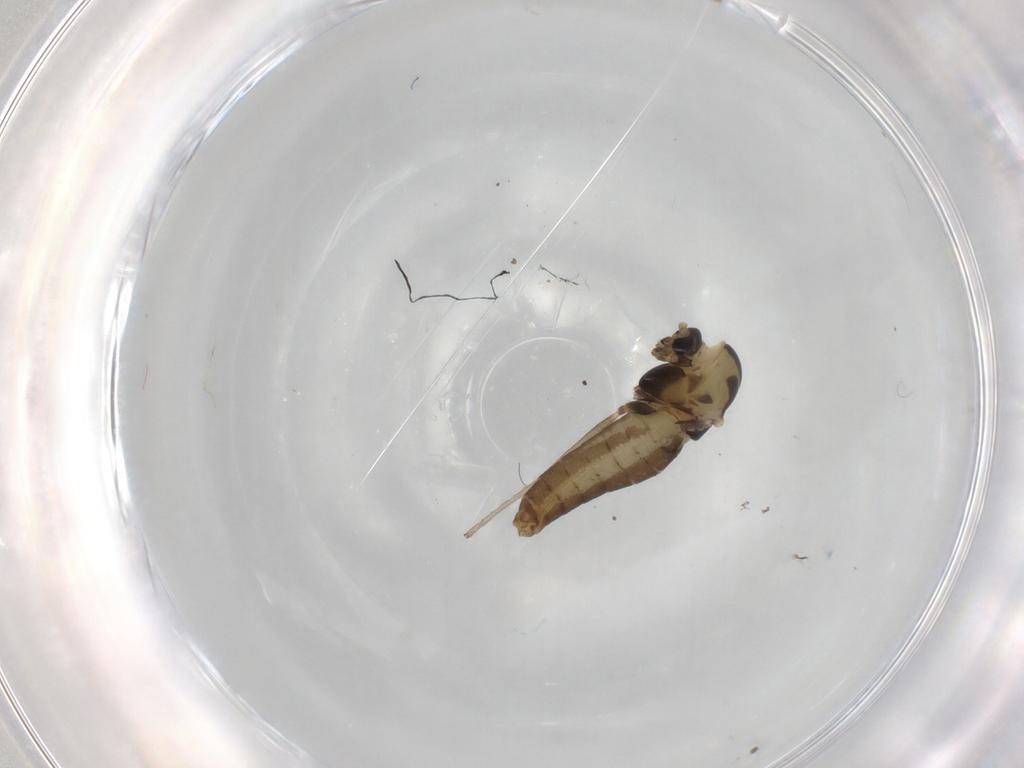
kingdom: Animalia
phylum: Arthropoda
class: Insecta
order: Diptera
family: Chironomidae
